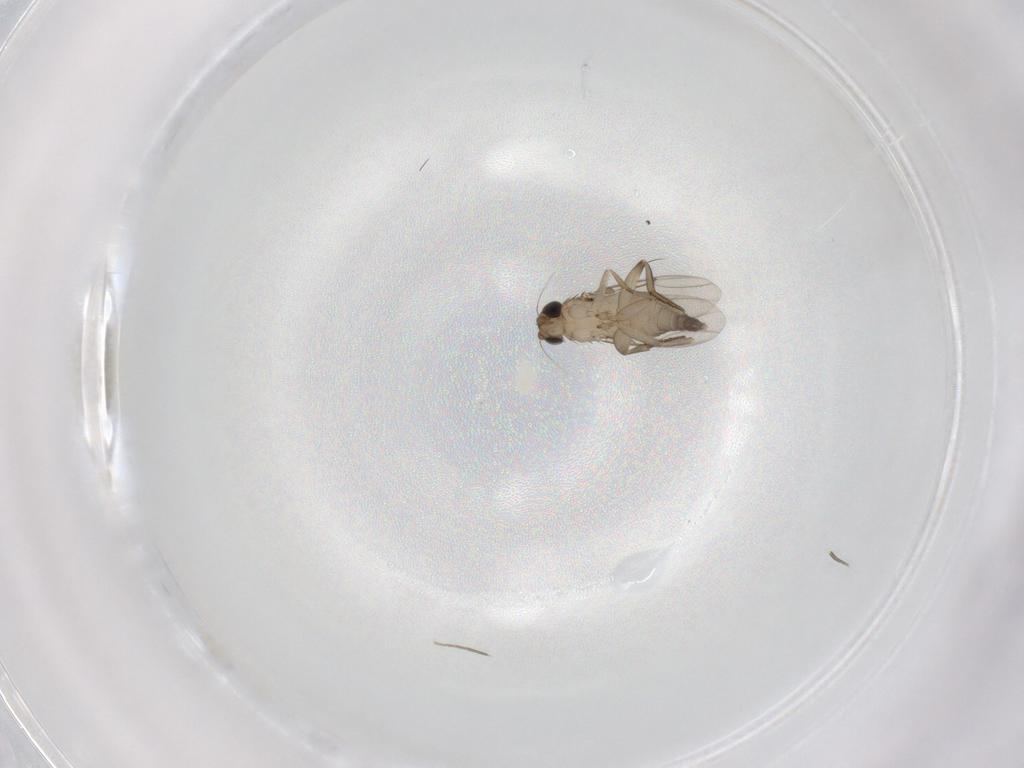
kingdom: Animalia
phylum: Arthropoda
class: Insecta
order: Diptera
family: Phoridae
